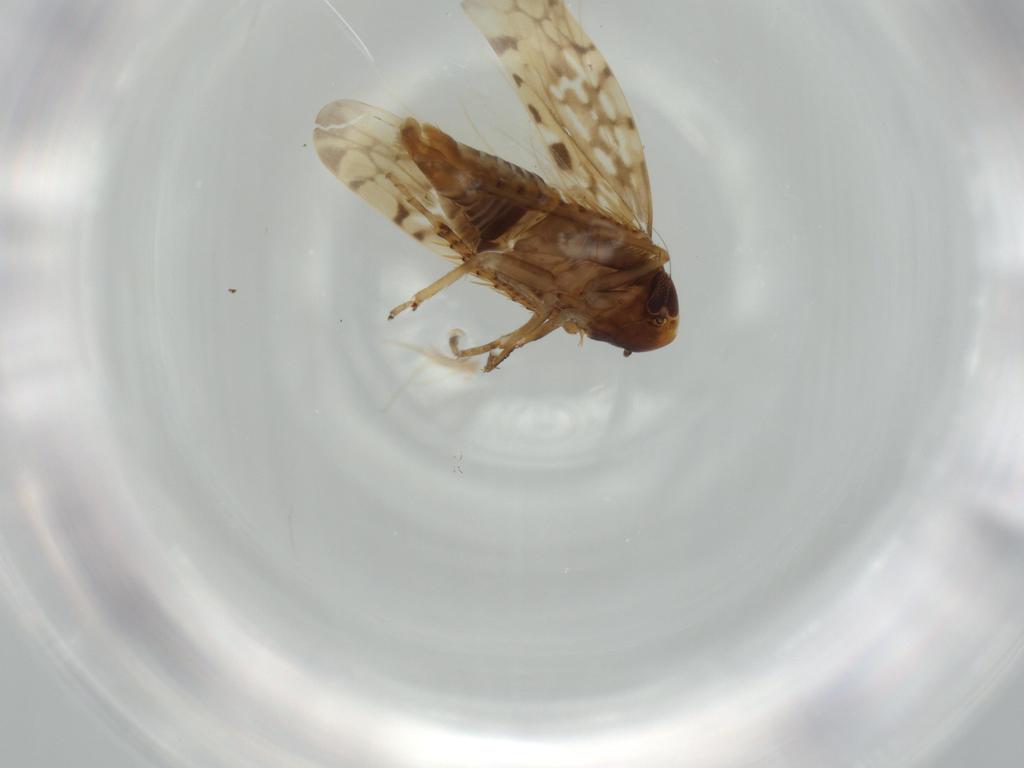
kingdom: Animalia
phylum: Arthropoda
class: Insecta
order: Hemiptera
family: Cicadellidae
